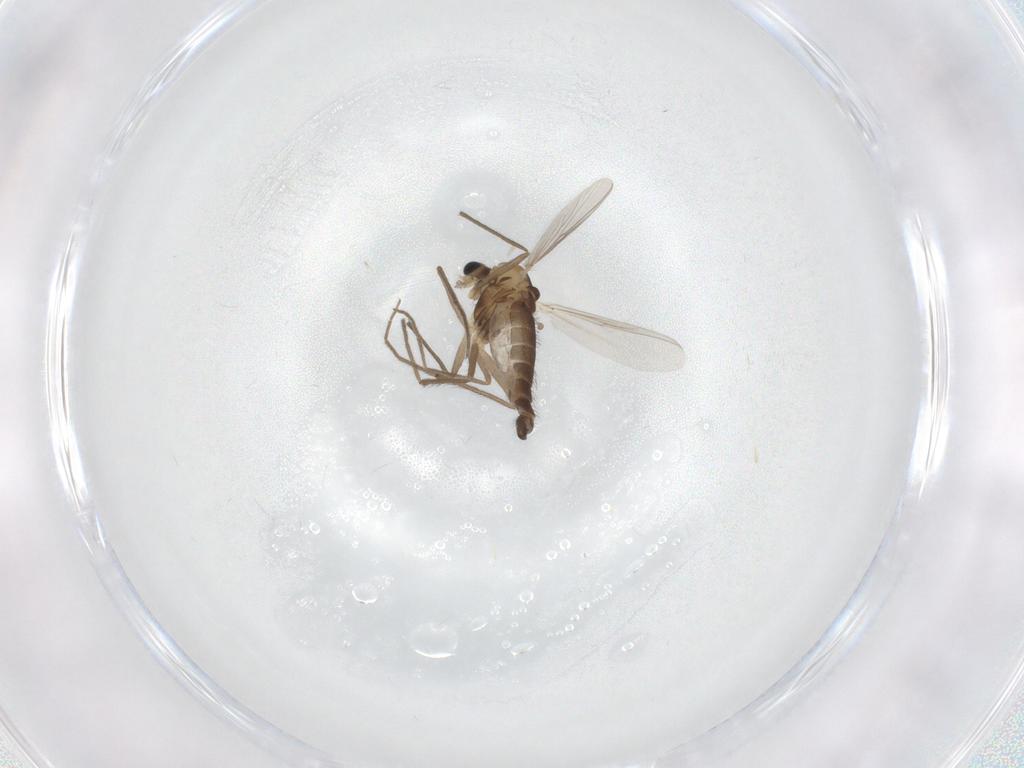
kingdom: Animalia
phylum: Arthropoda
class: Insecta
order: Diptera
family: Chironomidae
